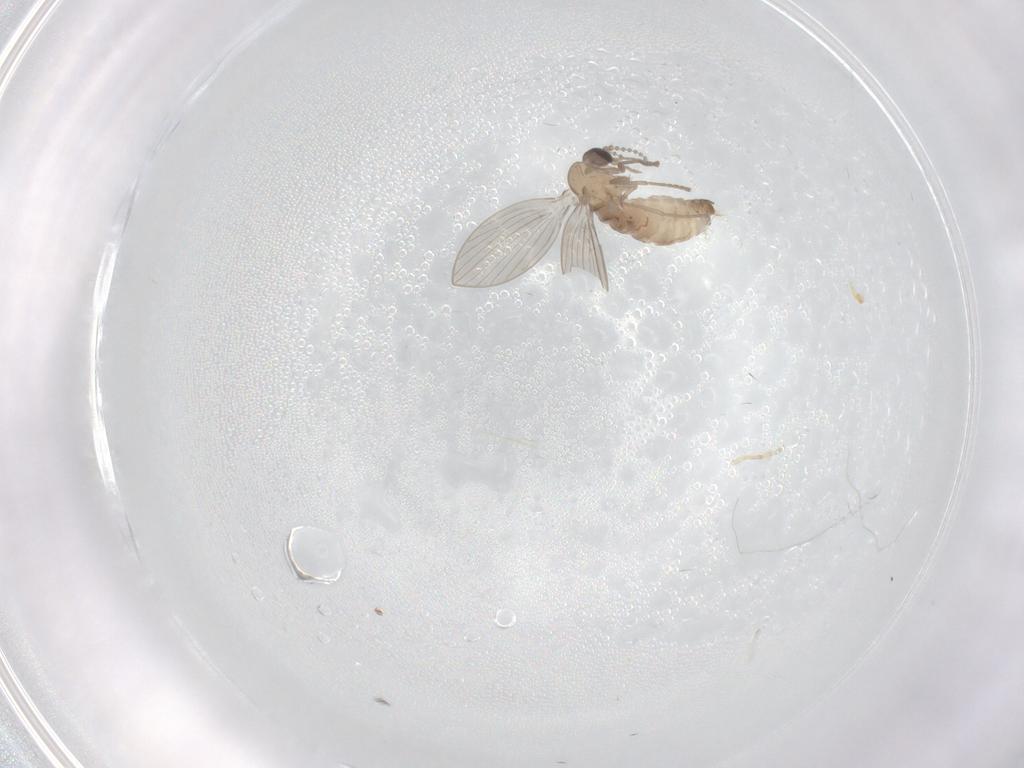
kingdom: Animalia
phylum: Arthropoda
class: Insecta
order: Diptera
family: Psychodidae
